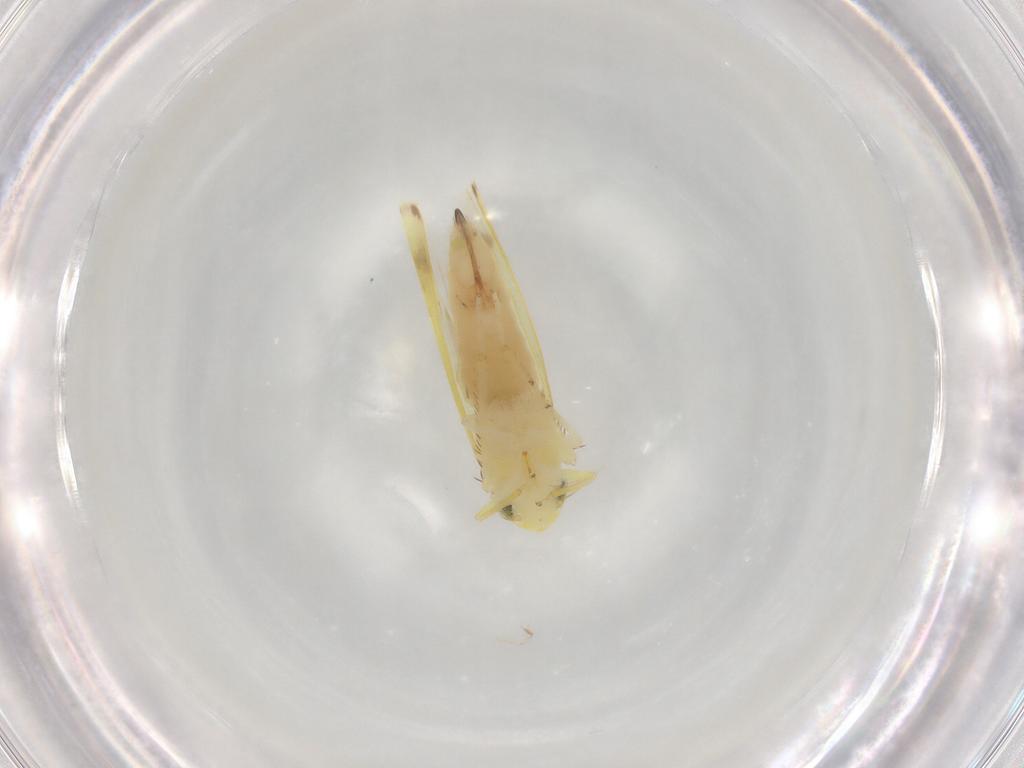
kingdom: Animalia
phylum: Arthropoda
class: Insecta
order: Hemiptera
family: Cicadellidae
